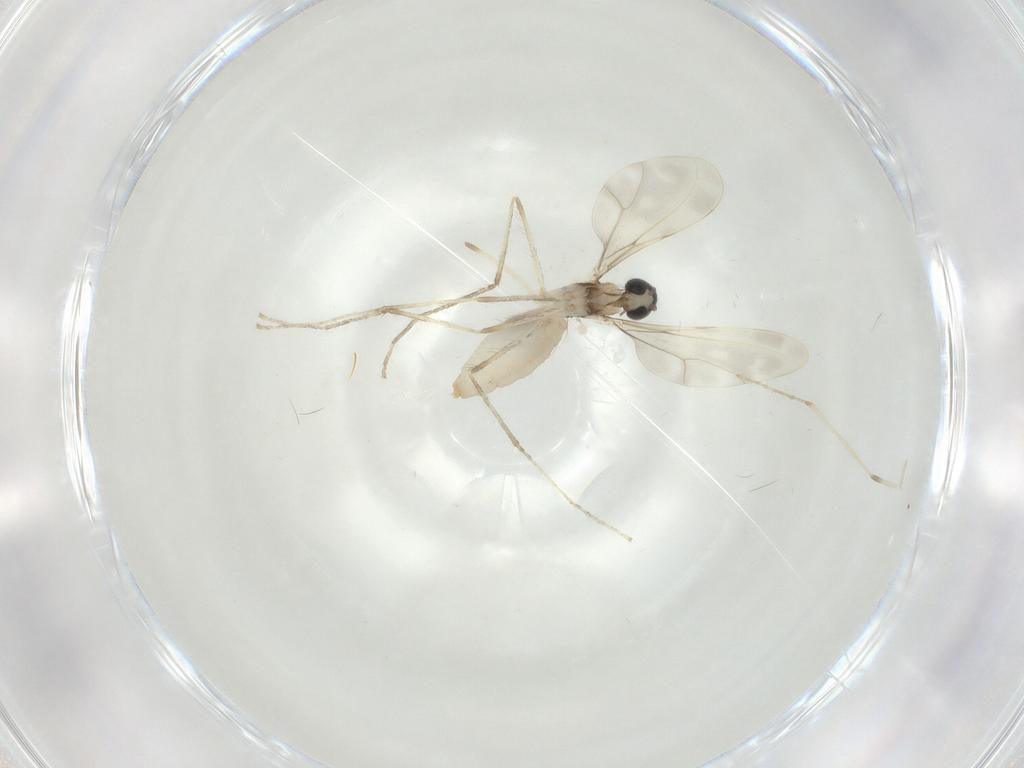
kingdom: Animalia
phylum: Arthropoda
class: Insecta
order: Diptera
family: Cecidomyiidae
